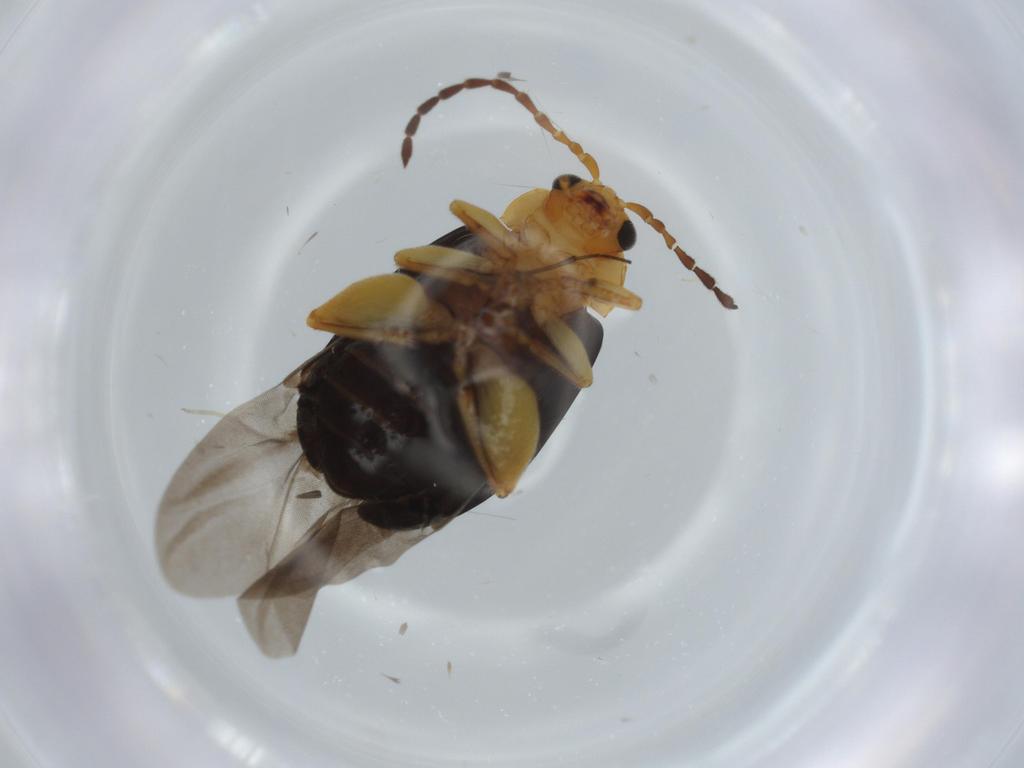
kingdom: Animalia
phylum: Arthropoda
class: Insecta
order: Coleoptera
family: Chrysomelidae
